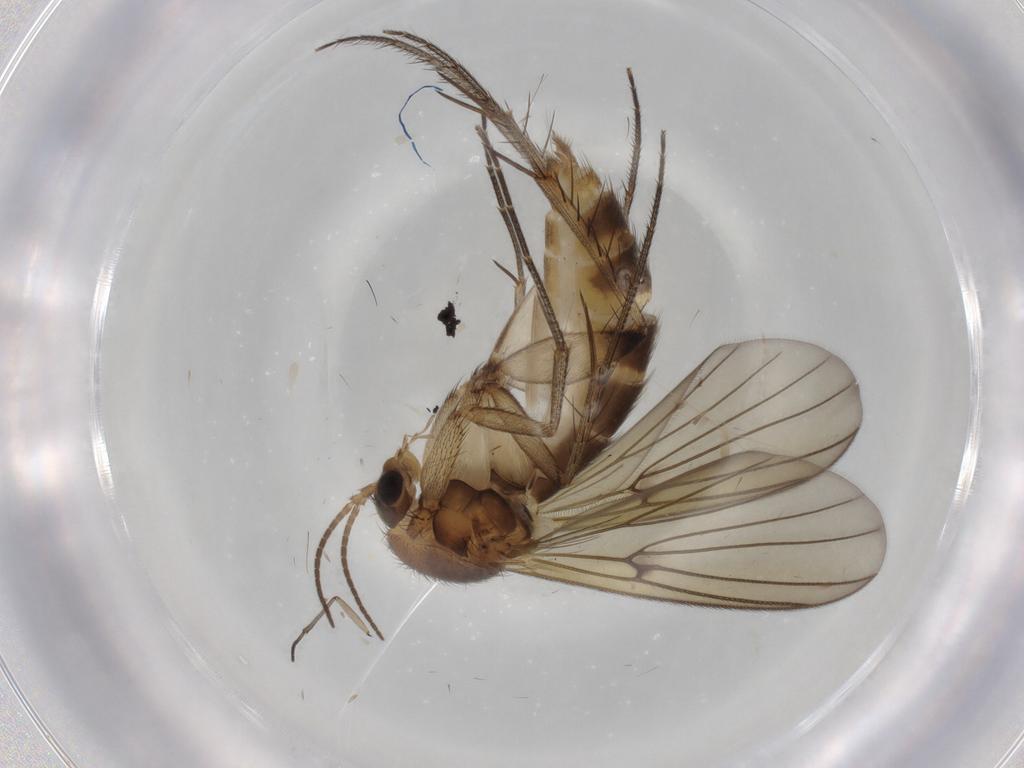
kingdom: Animalia
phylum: Arthropoda
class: Insecta
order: Diptera
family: Mycetophilidae
